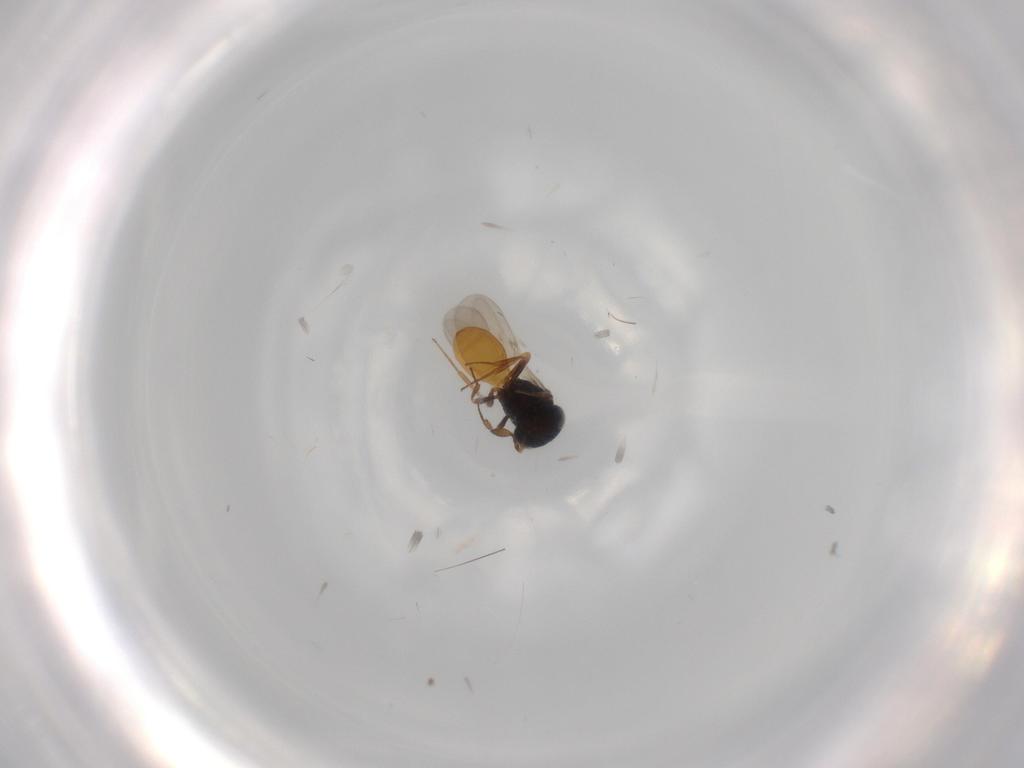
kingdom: Animalia
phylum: Arthropoda
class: Insecta
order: Hymenoptera
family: Scelionidae
